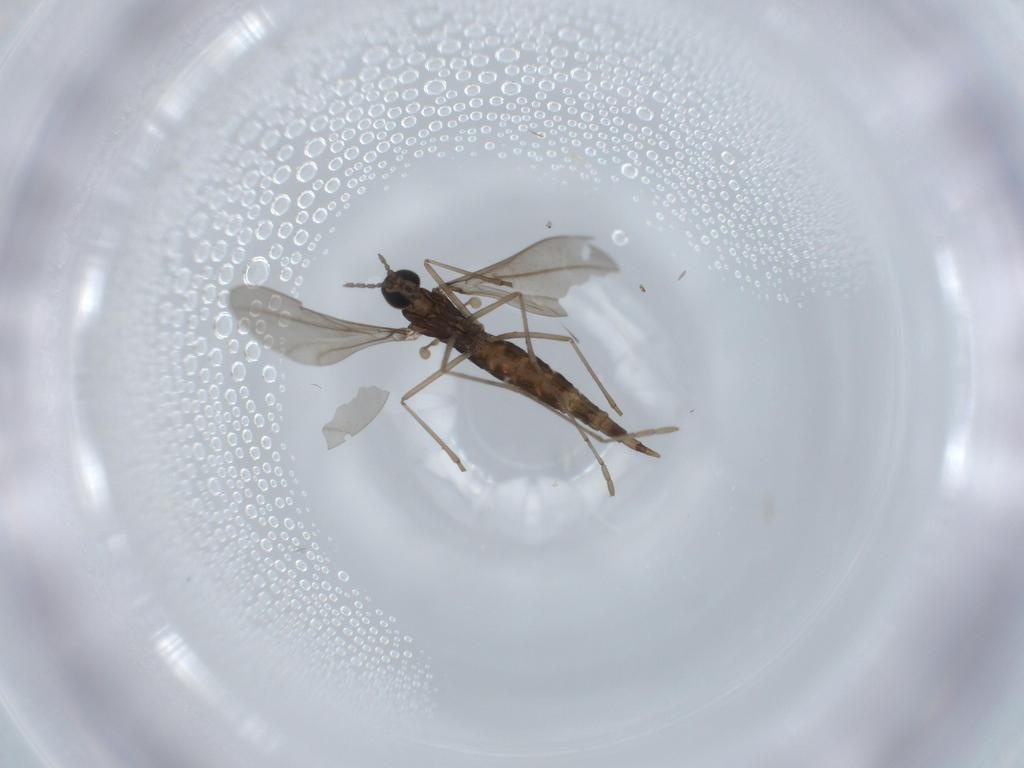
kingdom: Animalia
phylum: Arthropoda
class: Insecta
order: Diptera
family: Cecidomyiidae
